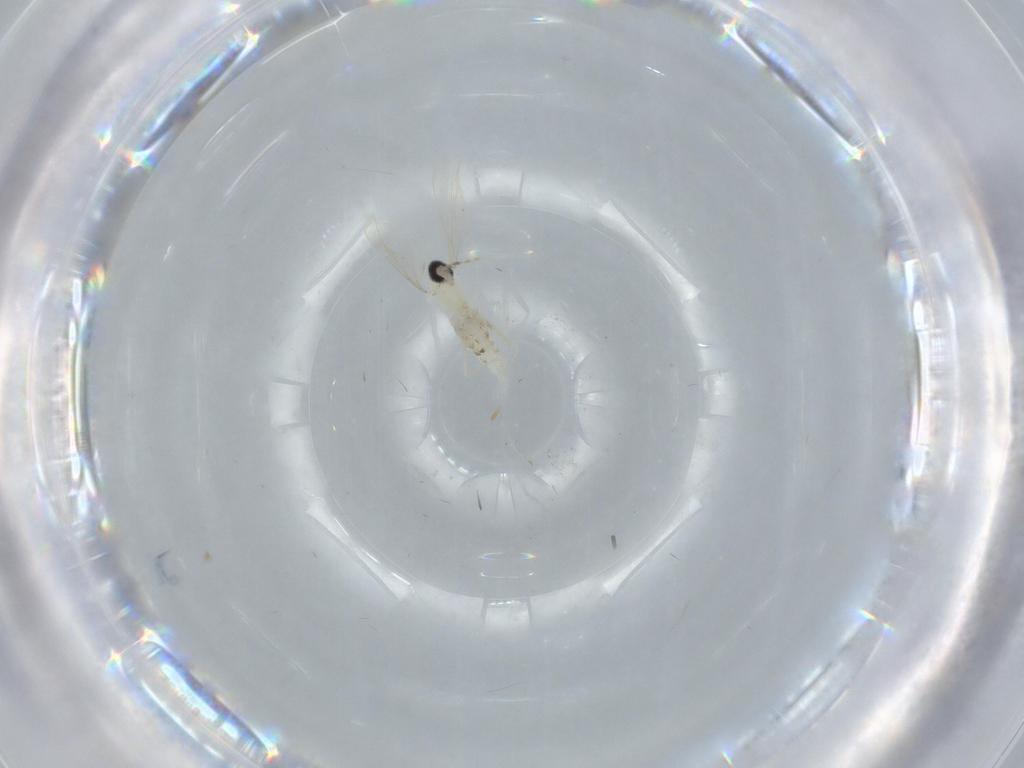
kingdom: Animalia
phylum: Arthropoda
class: Insecta
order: Diptera
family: Cecidomyiidae
